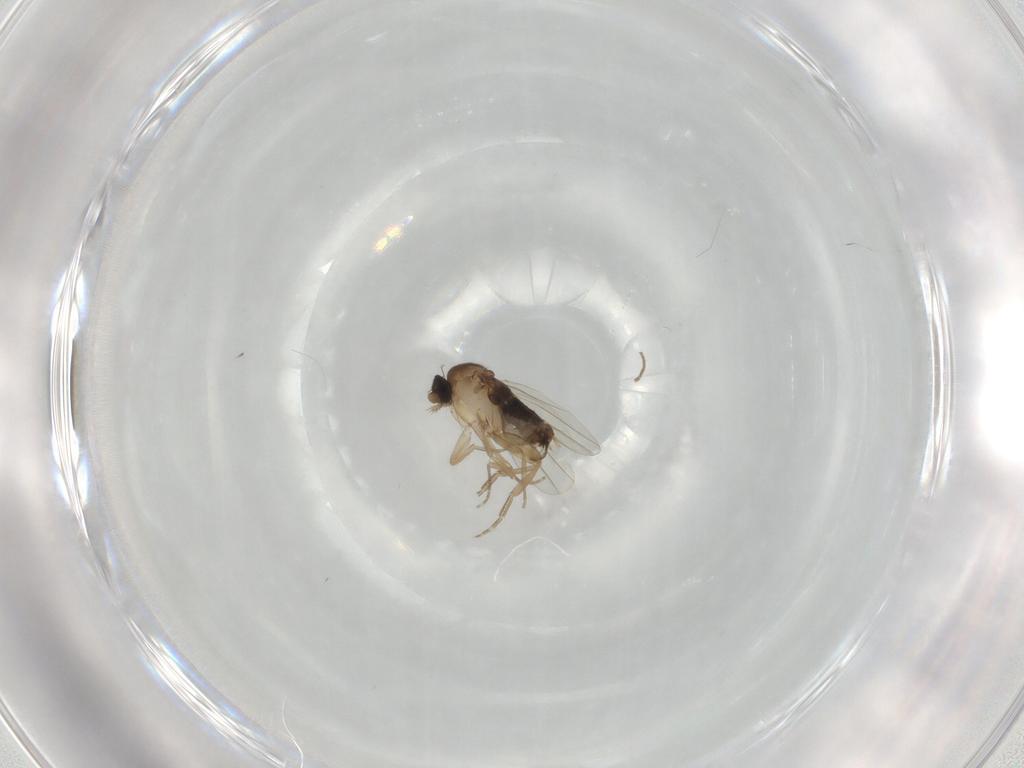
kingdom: Animalia
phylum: Arthropoda
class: Insecta
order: Diptera
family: Phoridae
